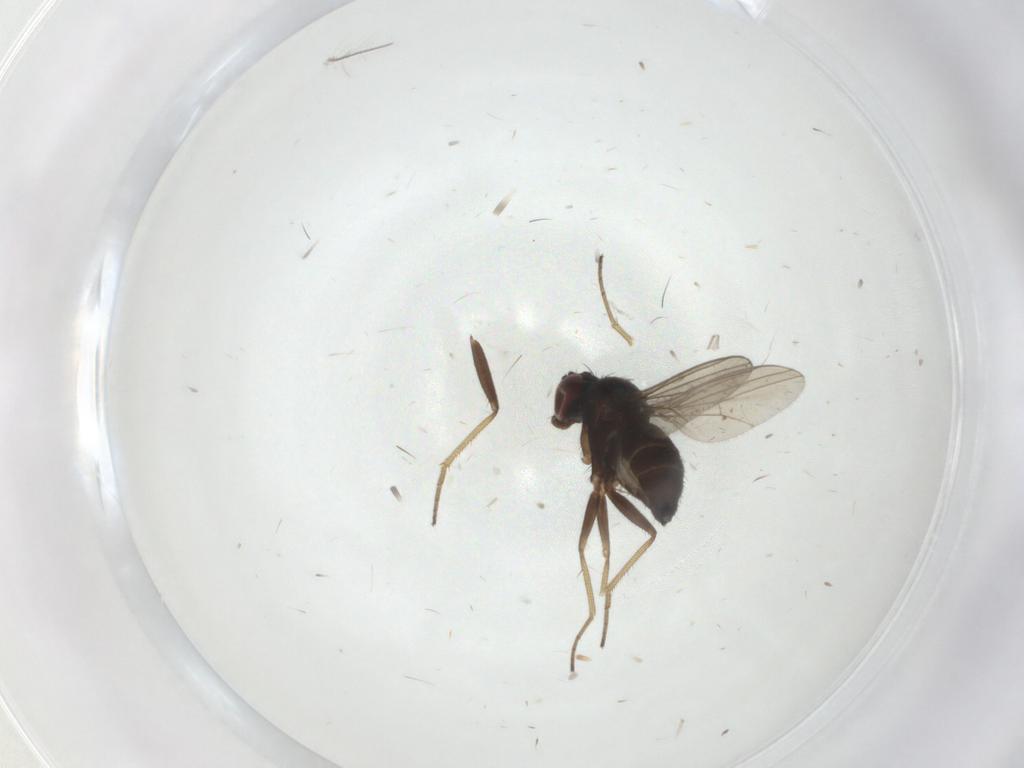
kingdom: Animalia
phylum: Arthropoda
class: Insecta
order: Diptera
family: Dolichopodidae
